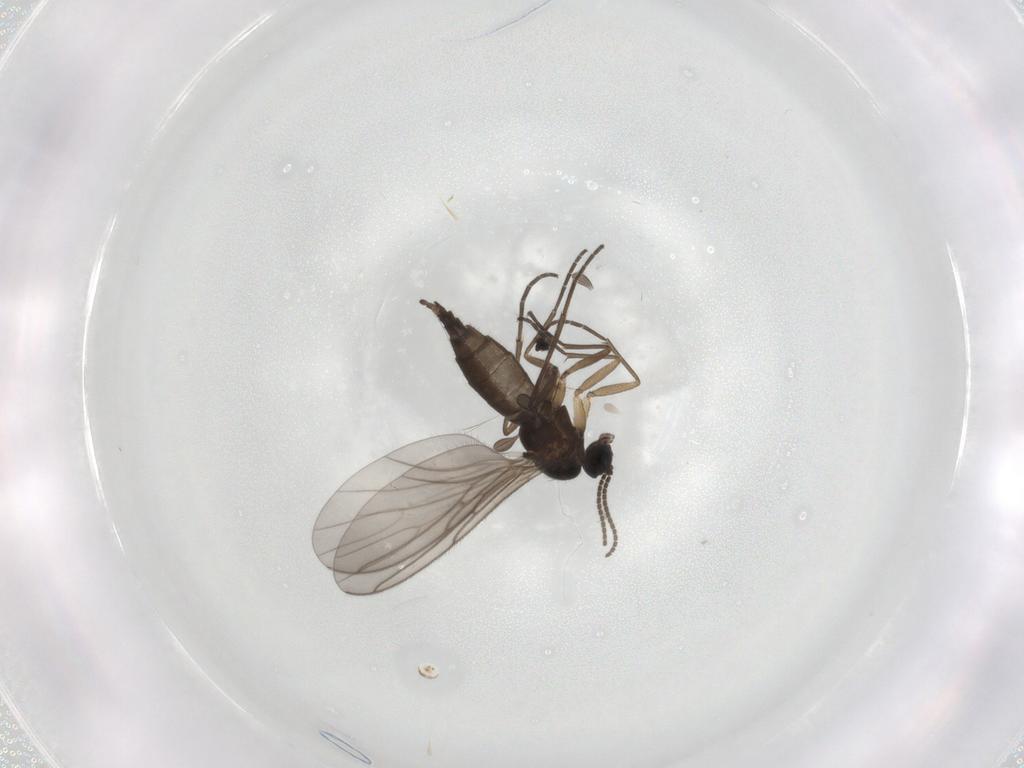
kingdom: Animalia
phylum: Arthropoda
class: Insecta
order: Diptera
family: Sciaridae
